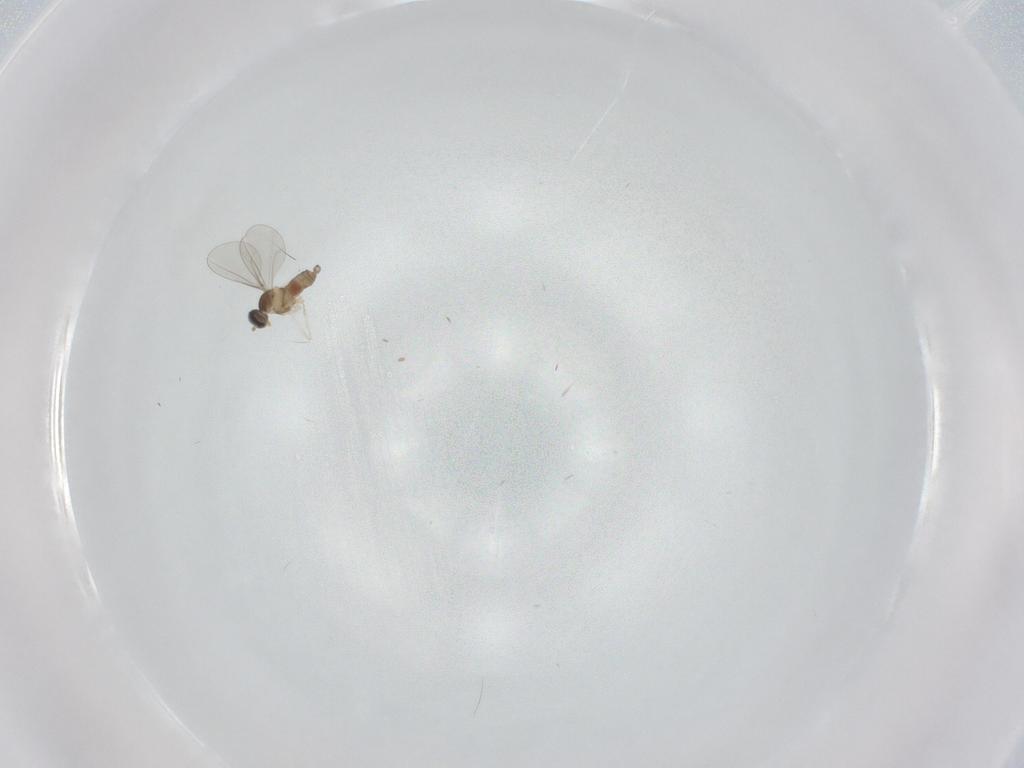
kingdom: Animalia
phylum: Arthropoda
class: Insecta
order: Diptera
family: Cecidomyiidae
